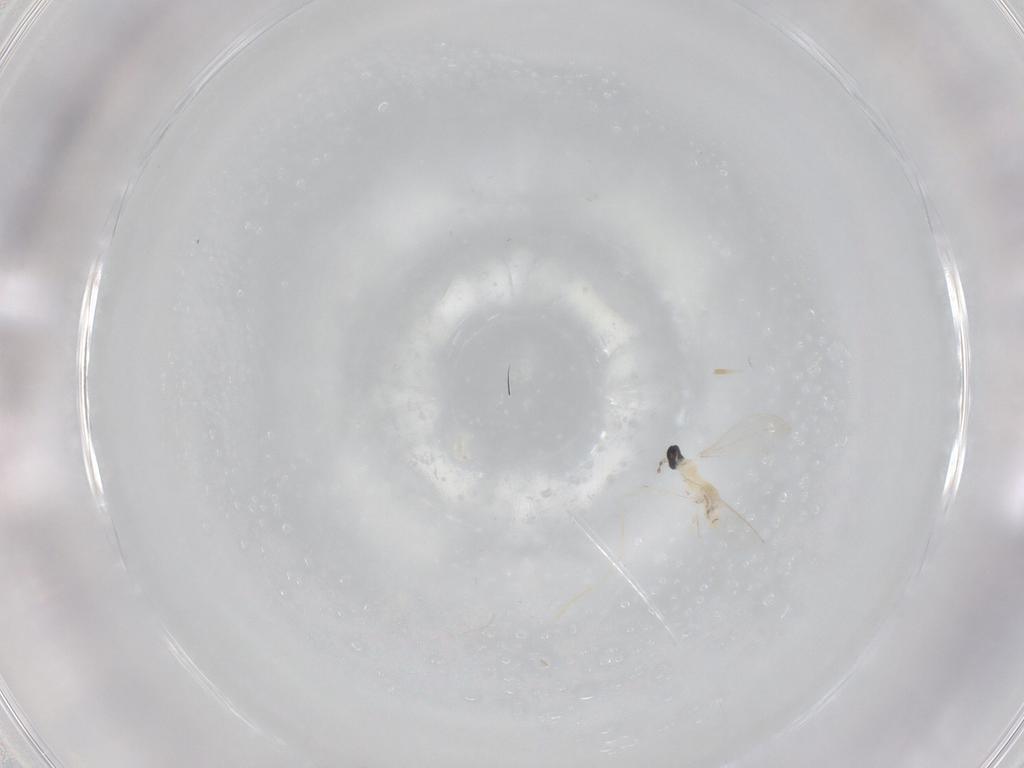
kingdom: Animalia
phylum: Arthropoda
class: Insecta
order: Diptera
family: Cecidomyiidae
